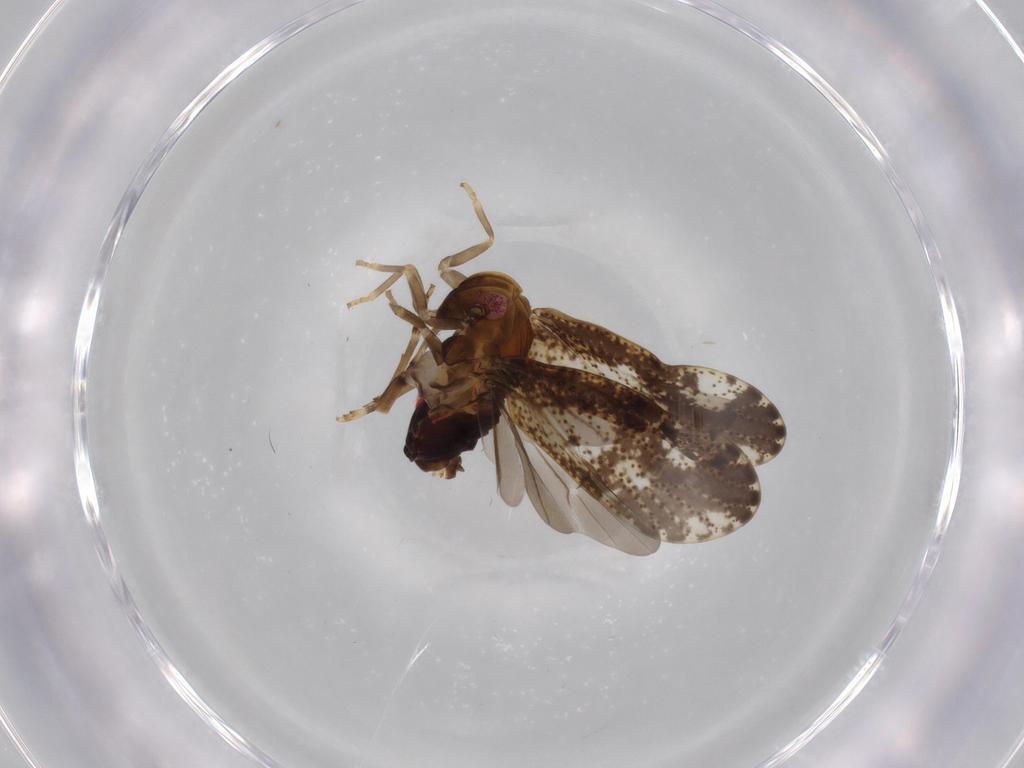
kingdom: Animalia
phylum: Arthropoda
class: Insecta
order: Hemiptera
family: Delphacidae
